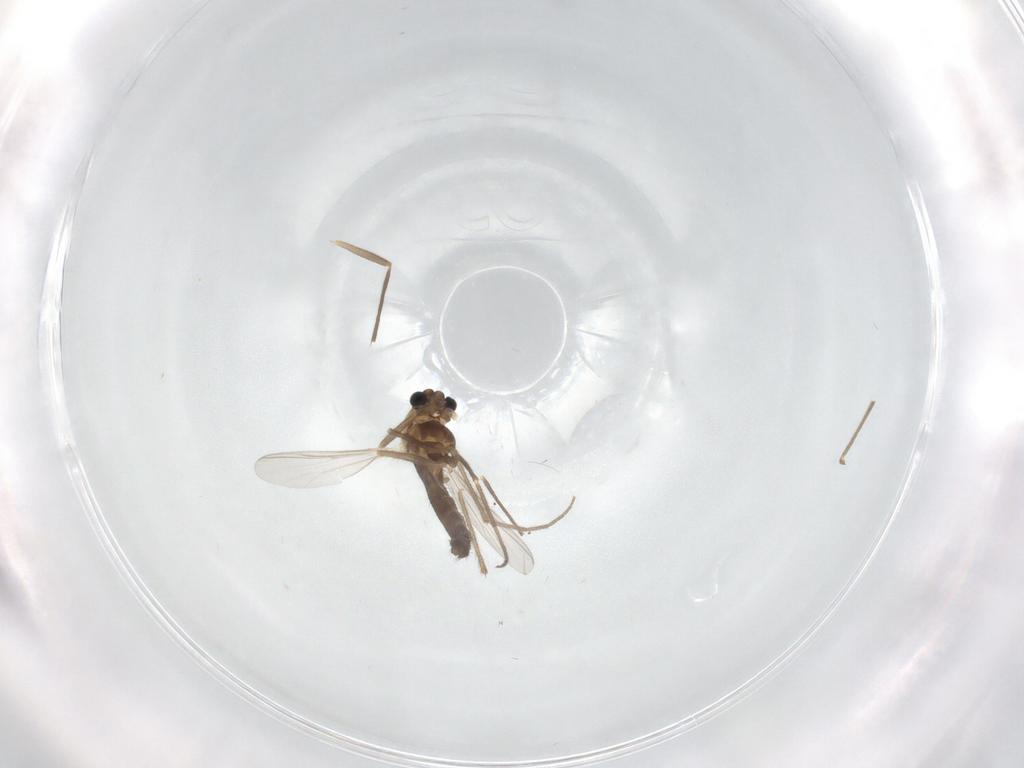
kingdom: Animalia
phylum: Arthropoda
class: Insecta
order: Diptera
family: Chironomidae
